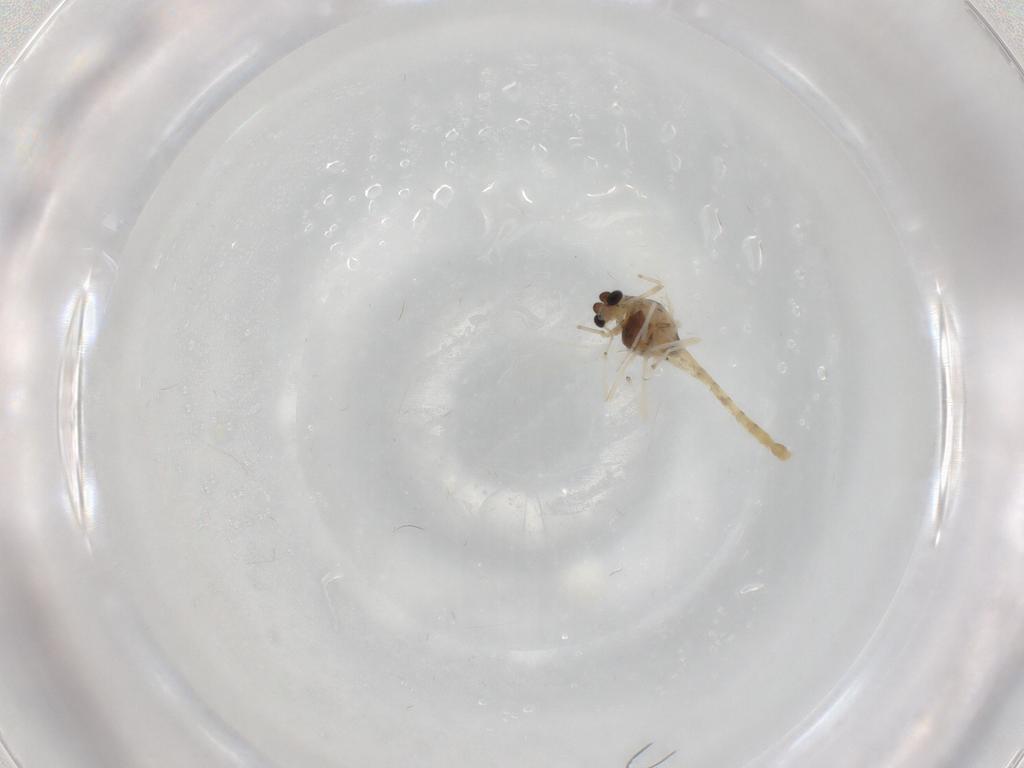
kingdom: Animalia
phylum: Arthropoda
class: Insecta
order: Diptera
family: Chironomidae
